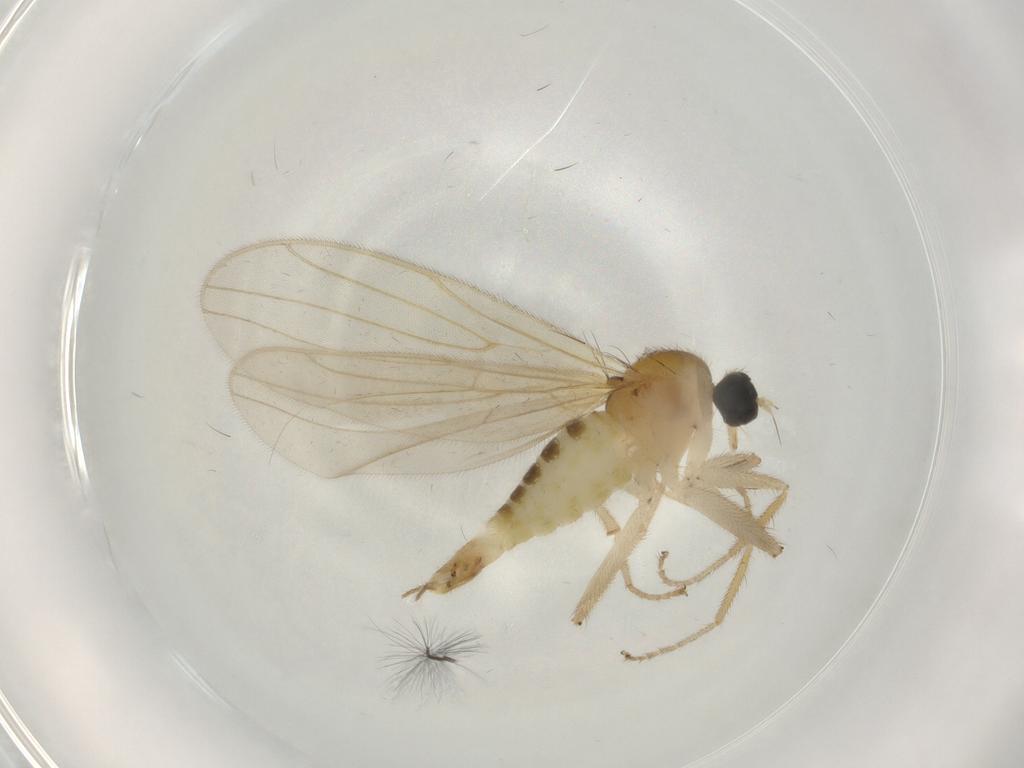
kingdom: Animalia
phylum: Arthropoda
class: Insecta
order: Diptera
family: Hybotidae
